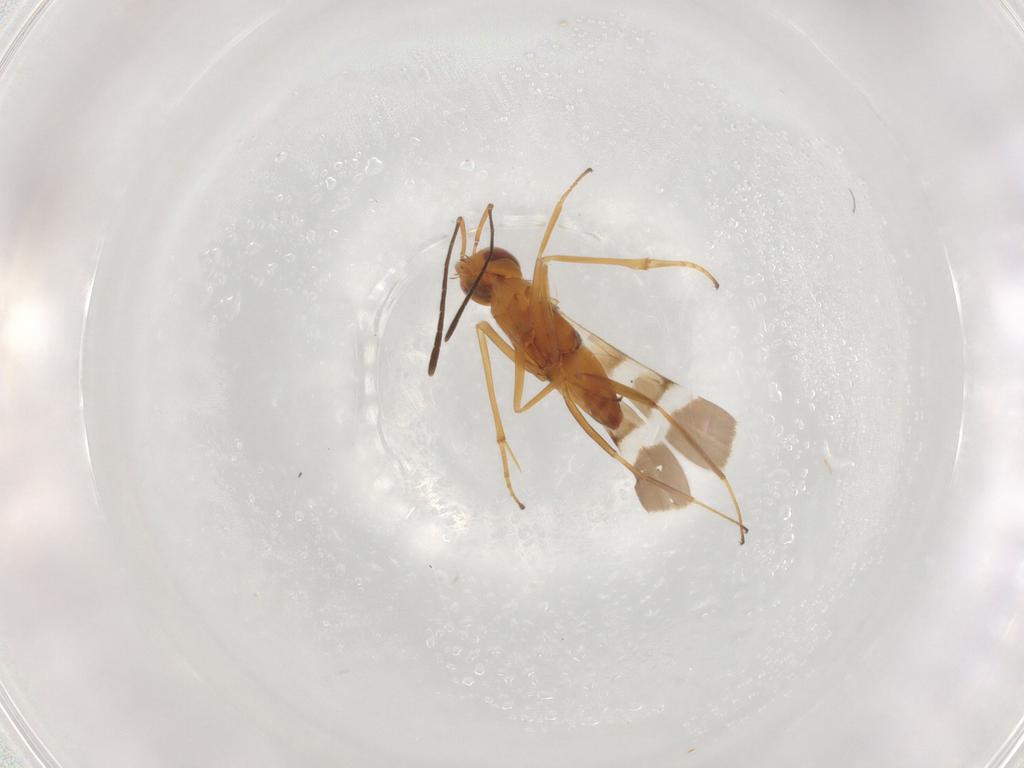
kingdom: Animalia
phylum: Arthropoda
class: Insecta
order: Hymenoptera
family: Encyrtidae
